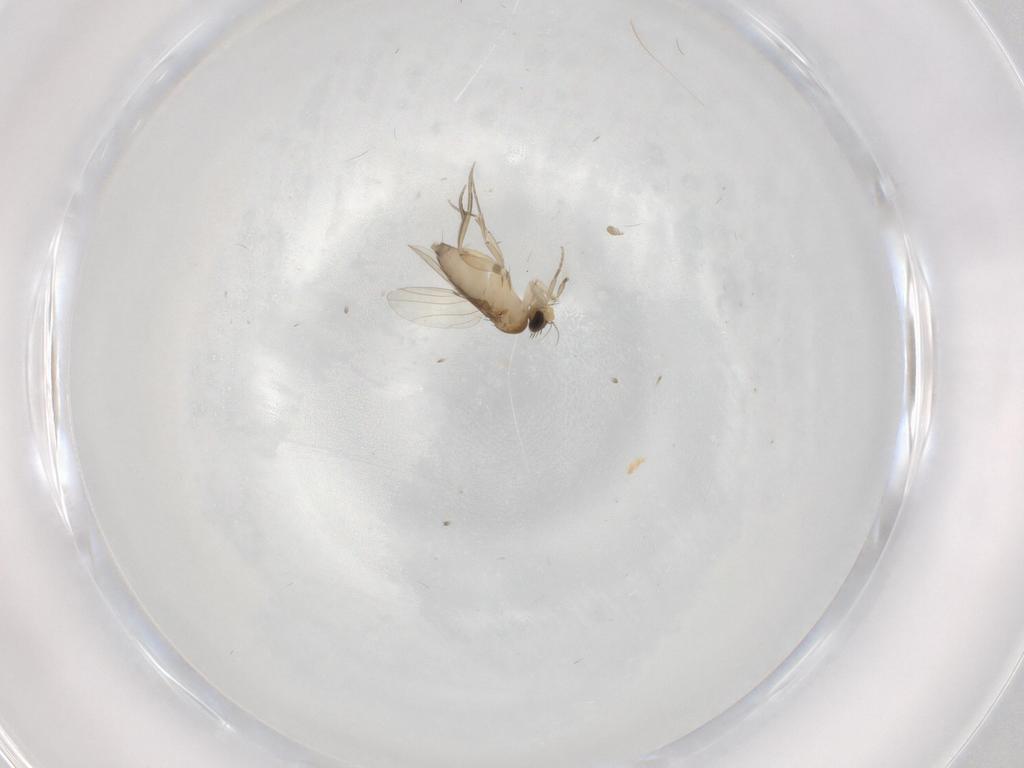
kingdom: Animalia
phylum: Arthropoda
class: Insecta
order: Diptera
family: Phoridae
